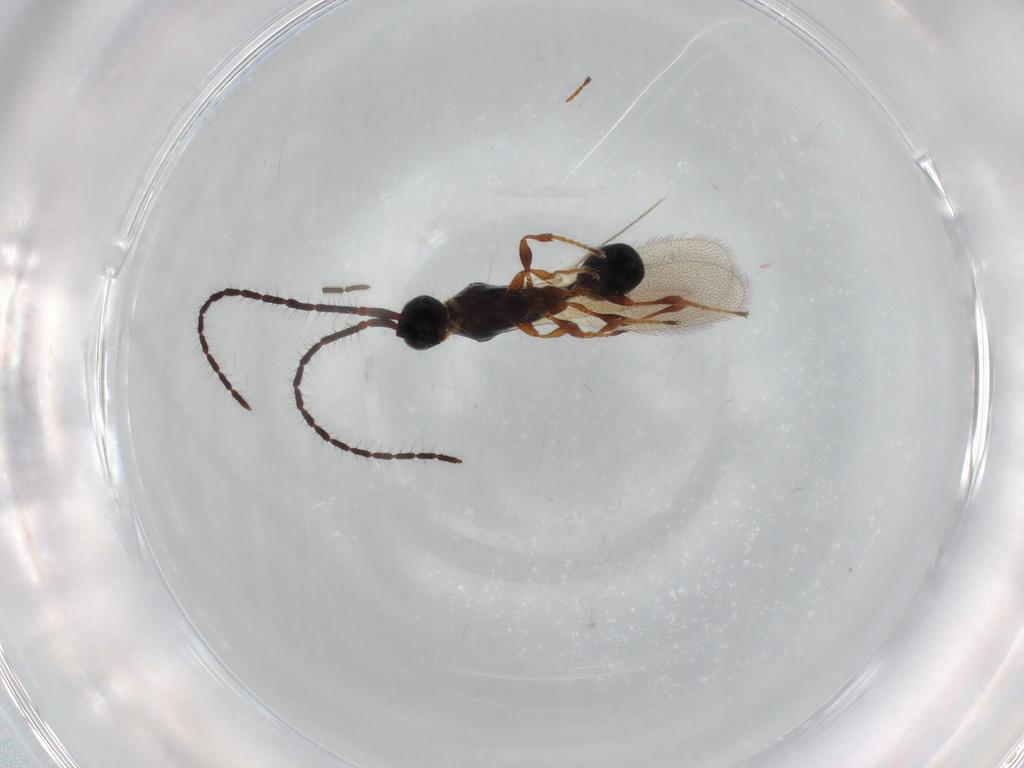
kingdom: Animalia
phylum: Arthropoda
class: Insecta
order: Hymenoptera
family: Diapriidae
